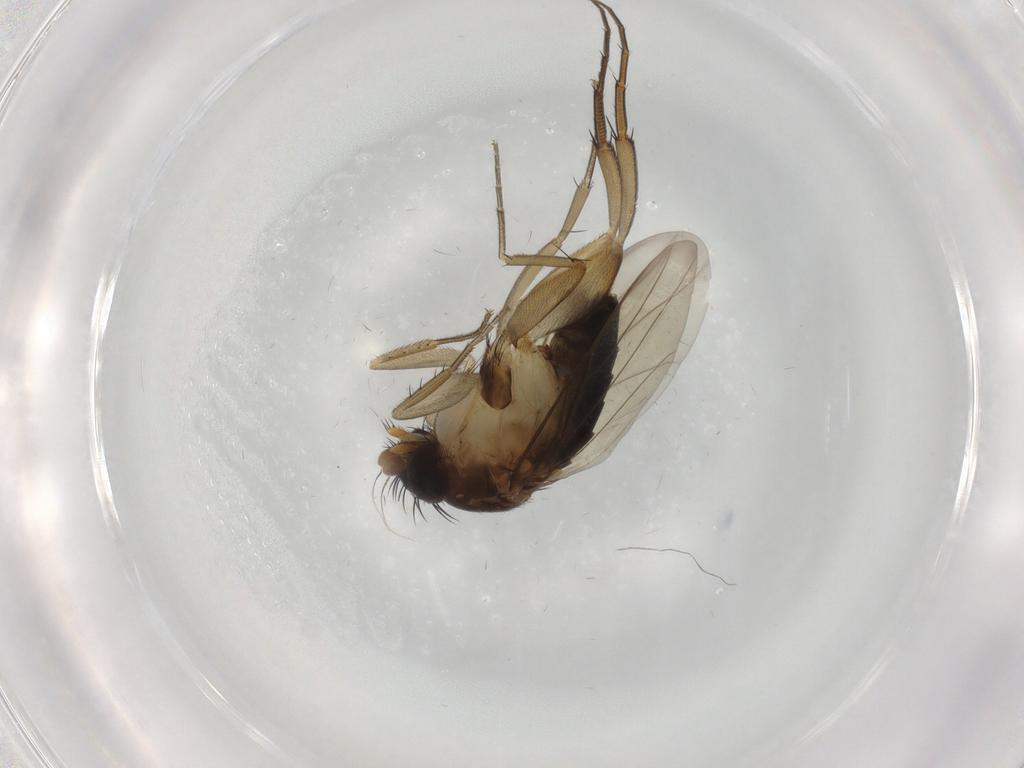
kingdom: Animalia
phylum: Arthropoda
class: Insecta
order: Diptera
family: Phoridae
